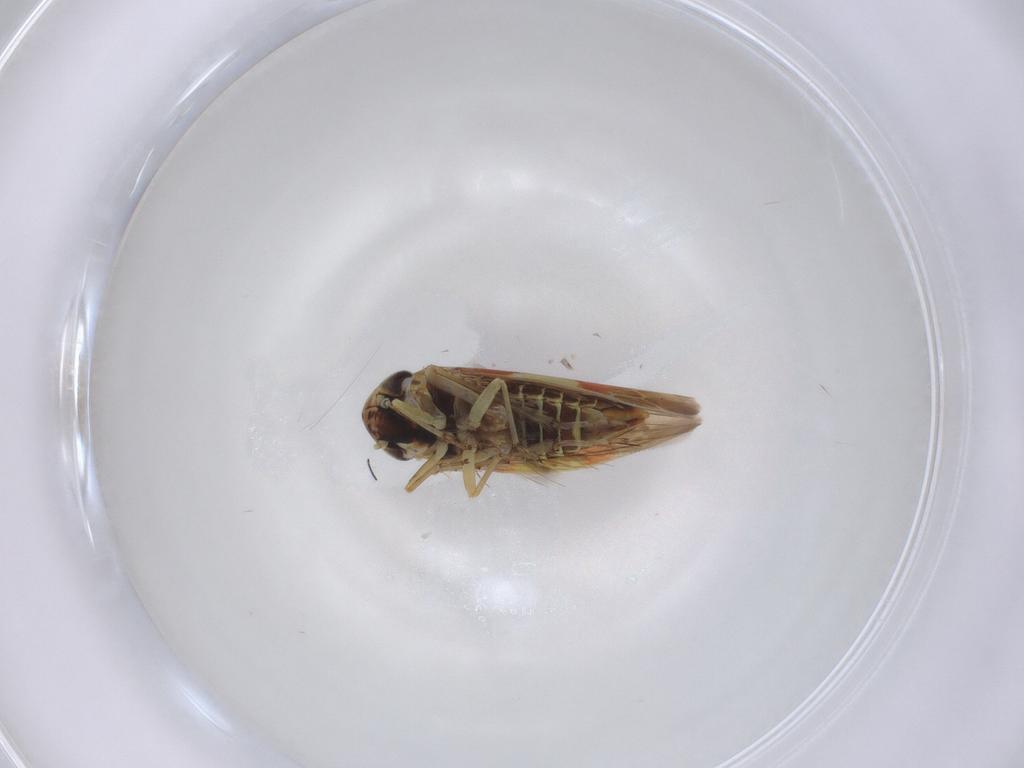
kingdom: Animalia
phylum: Arthropoda
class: Insecta
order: Hemiptera
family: Cicadellidae
